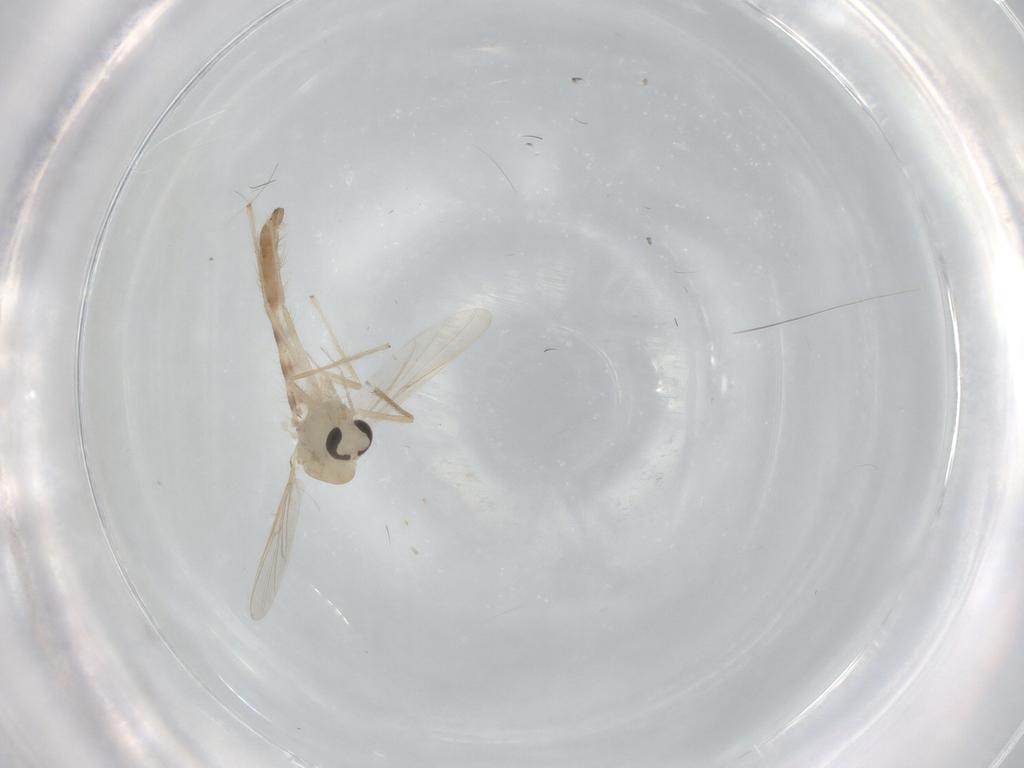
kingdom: Animalia
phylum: Arthropoda
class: Insecta
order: Diptera
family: Chironomidae
